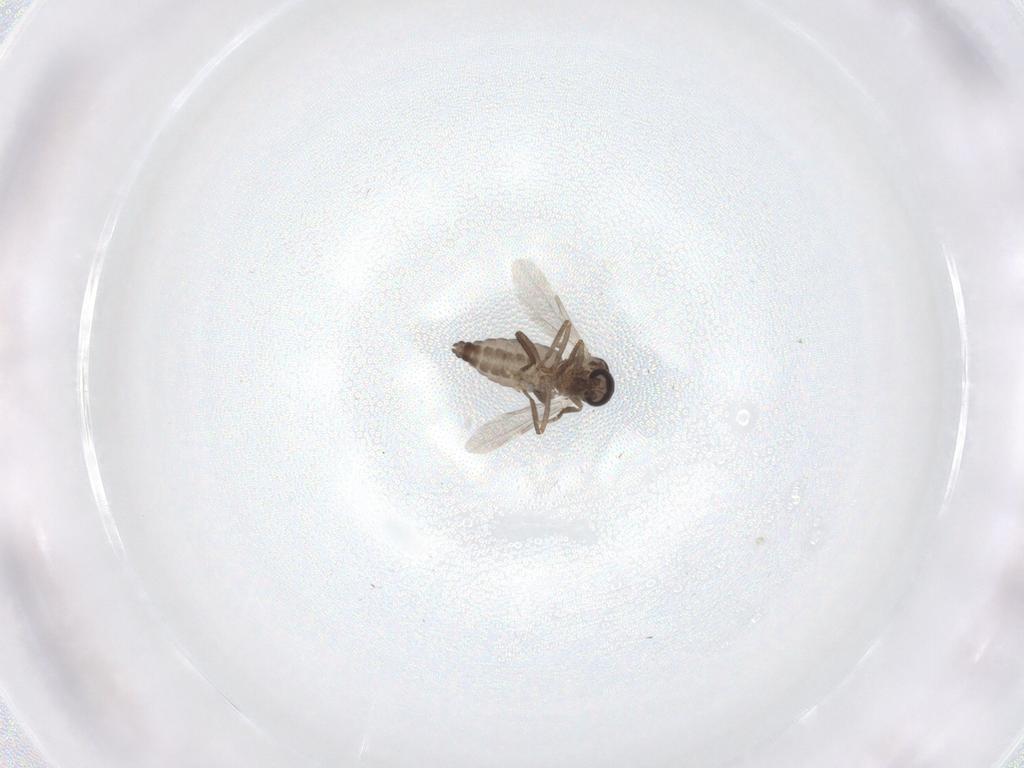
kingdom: Animalia
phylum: Arthropoda
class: Insecta
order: Diptera
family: Ceratopogonidae
